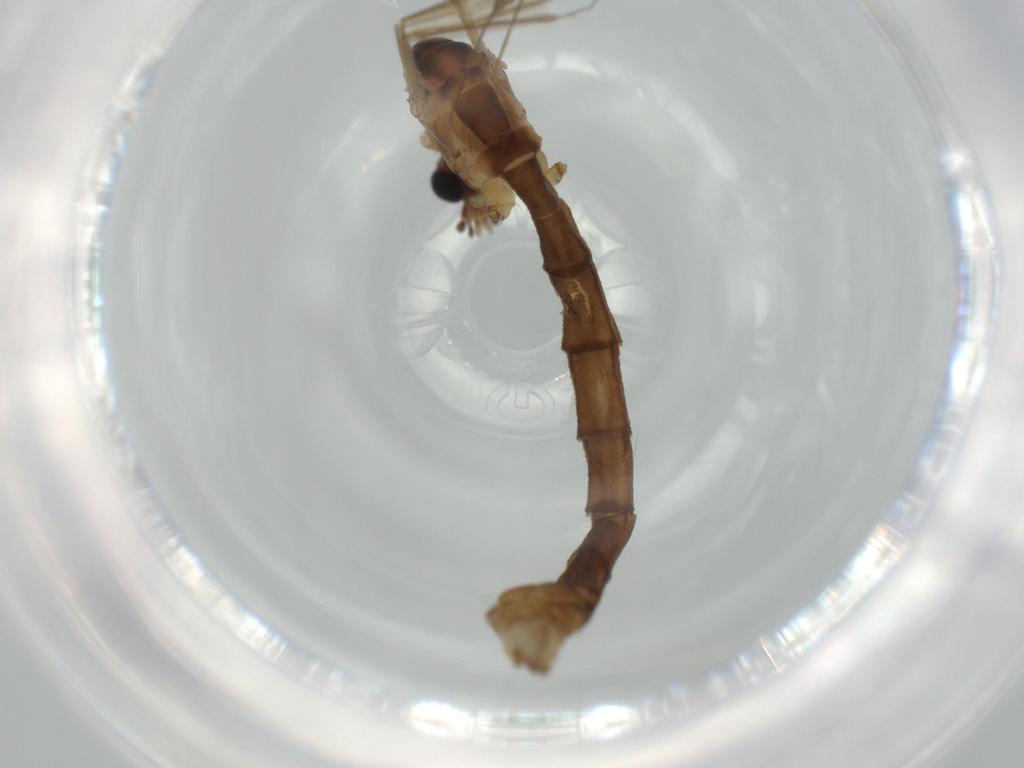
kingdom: Animalia
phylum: Arthropoda
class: Insecta
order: Diptera
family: Limoniidae
